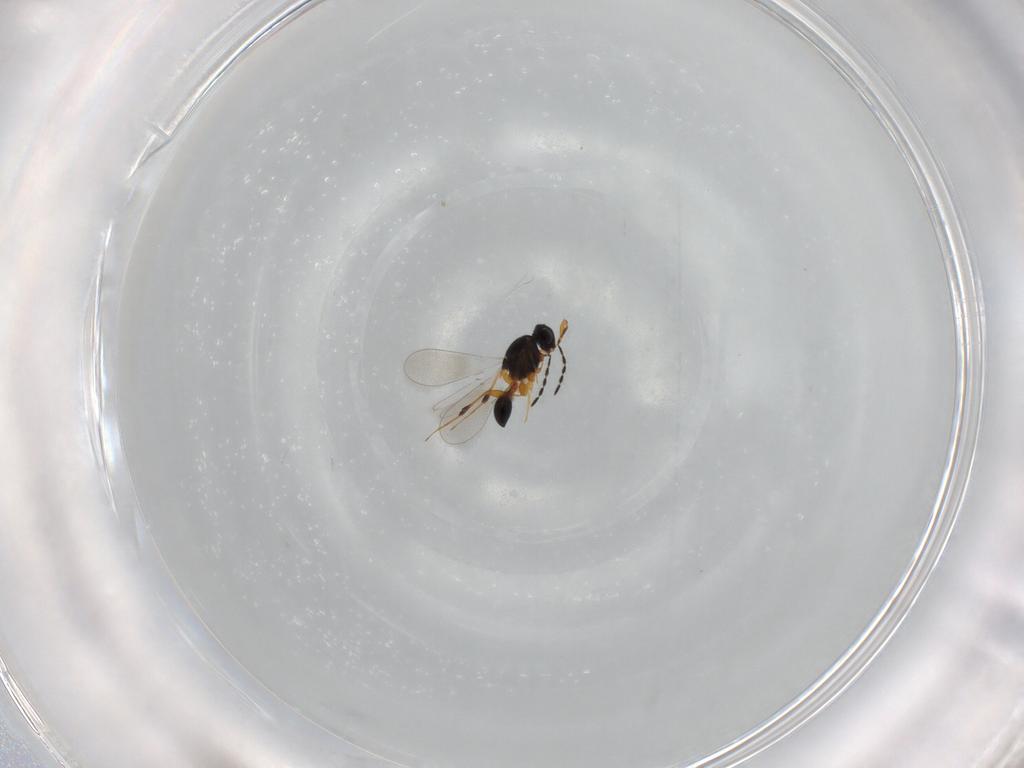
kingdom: Animalia
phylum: Arthropoda
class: Insecta
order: Hymenoptera
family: Platygastridae
